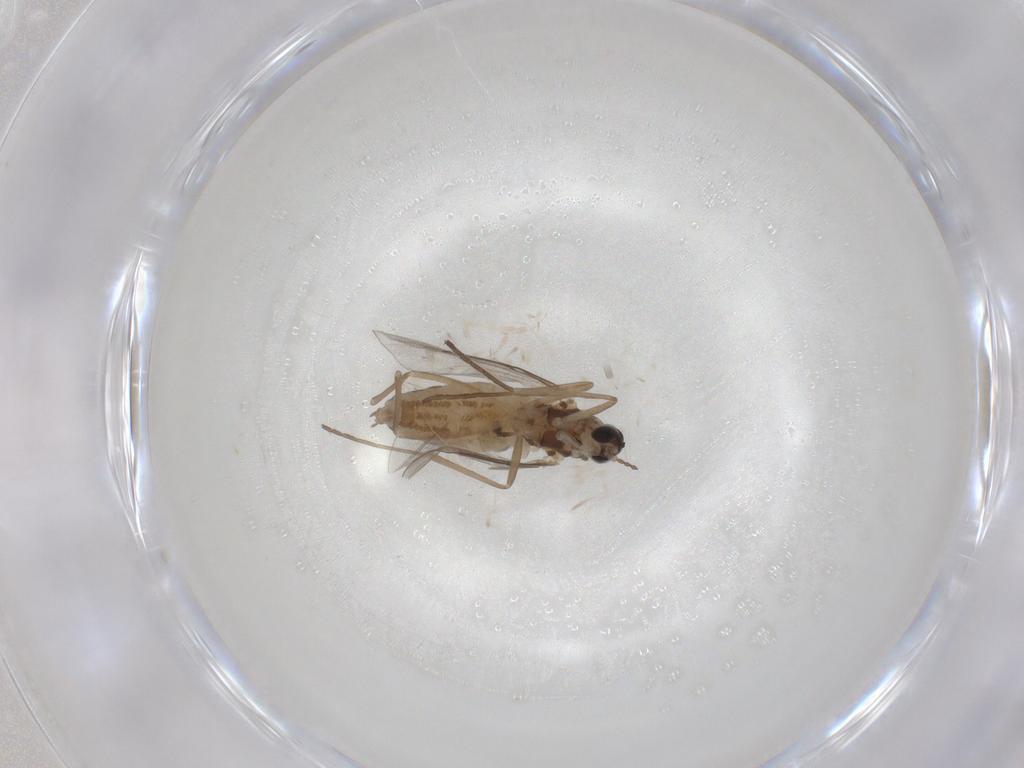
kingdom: Animalia
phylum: Arthropoda
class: Insecta
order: Diptera
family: Cecidomyiidae
